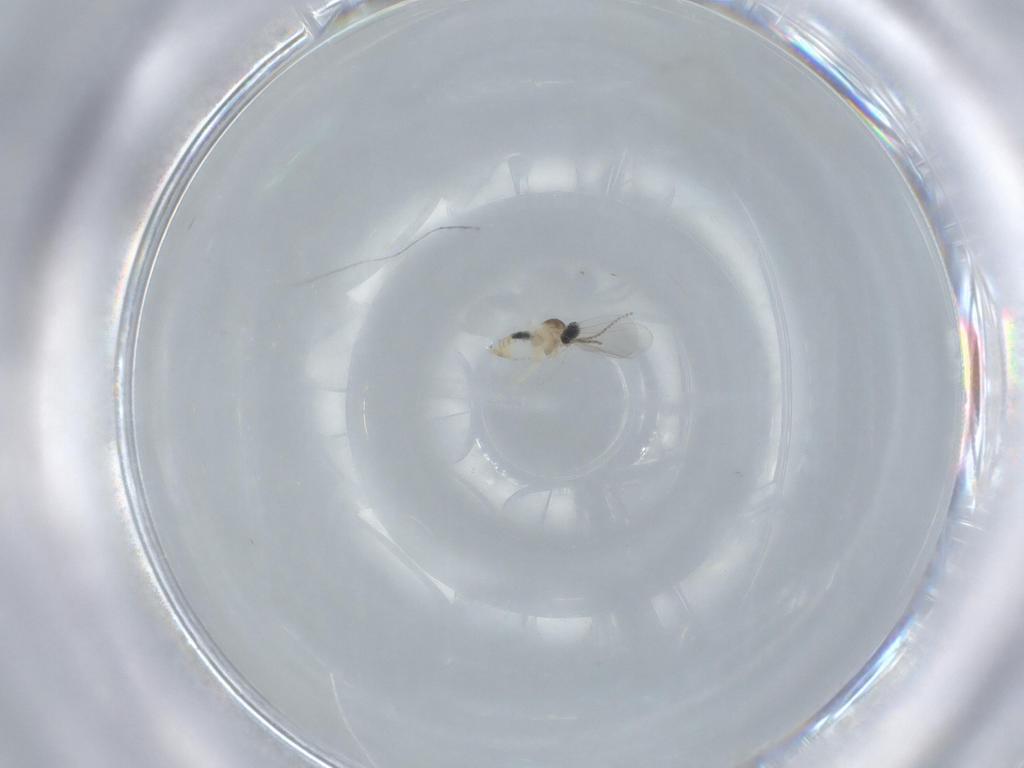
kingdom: Animalia
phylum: Arthropoda
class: Insecta
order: Diptera
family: Cecidomyiidae
